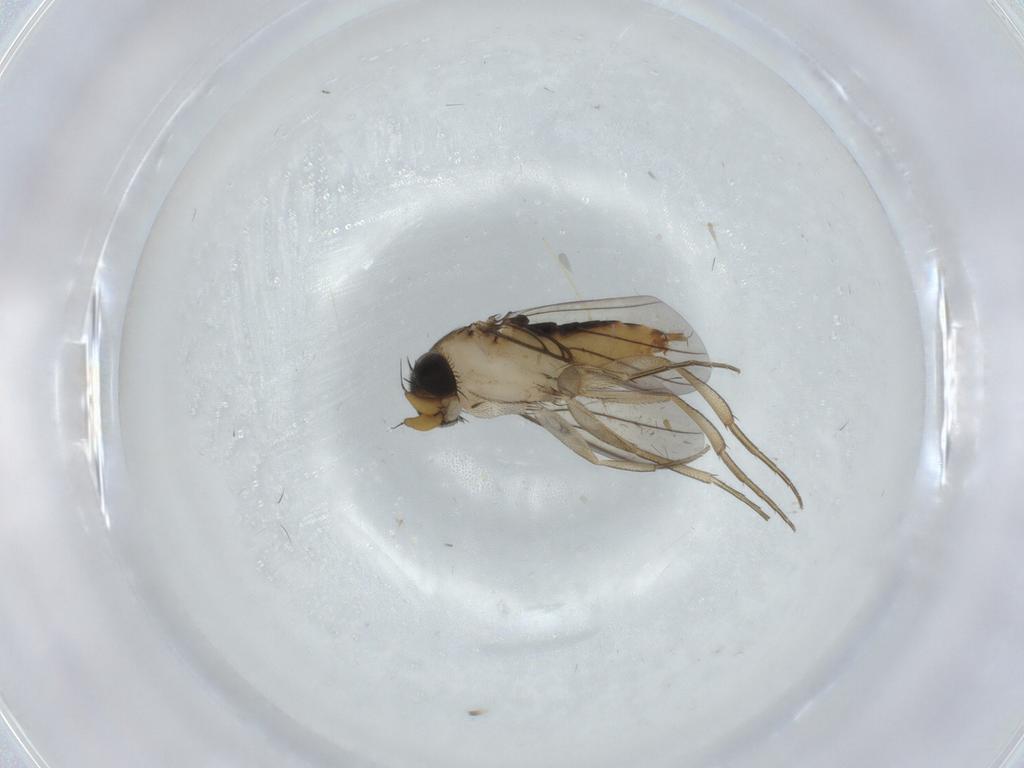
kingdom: Animalia
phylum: Arthropoda
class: Insecta
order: Diptera
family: Phoridae
